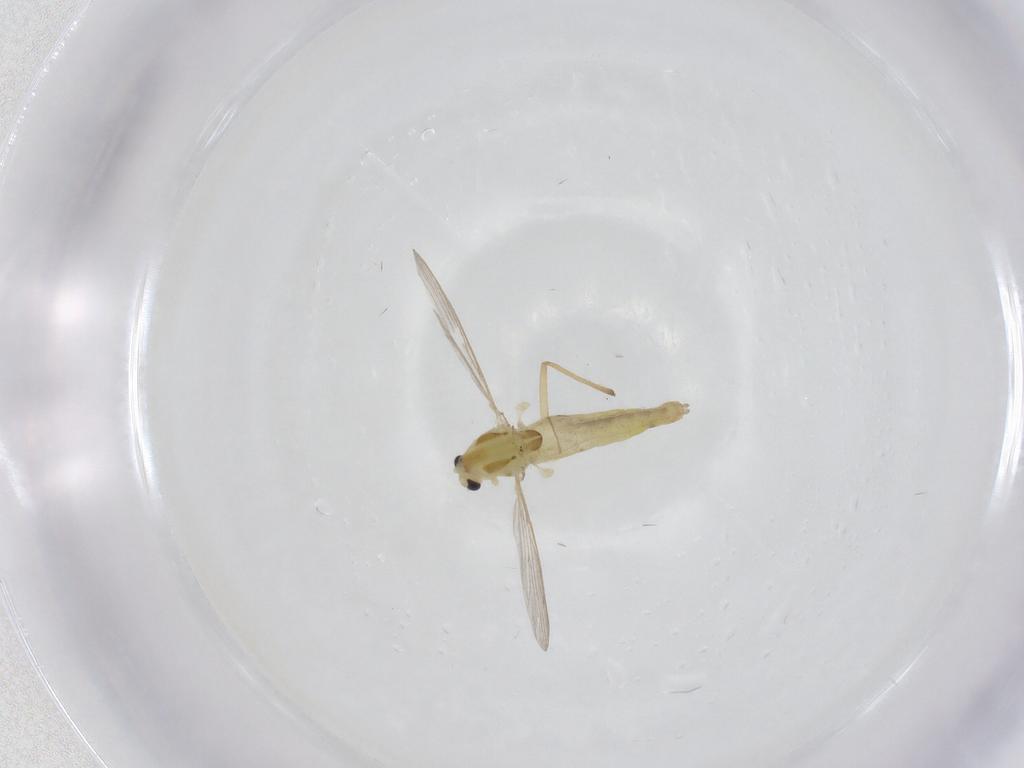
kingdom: Animalia
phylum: Arthropoda
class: Insecta
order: Diptera
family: Chironomidae
